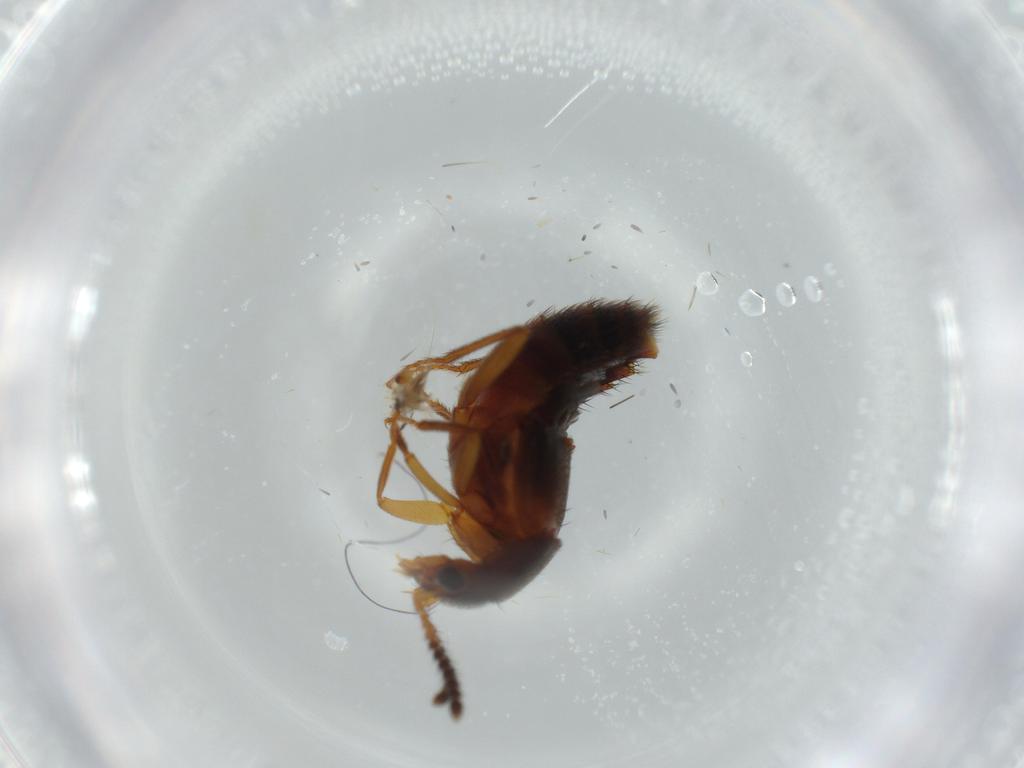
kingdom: Animalia
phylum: Arthropoda
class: Insecta
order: Coleoptera
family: Staphylinidae
